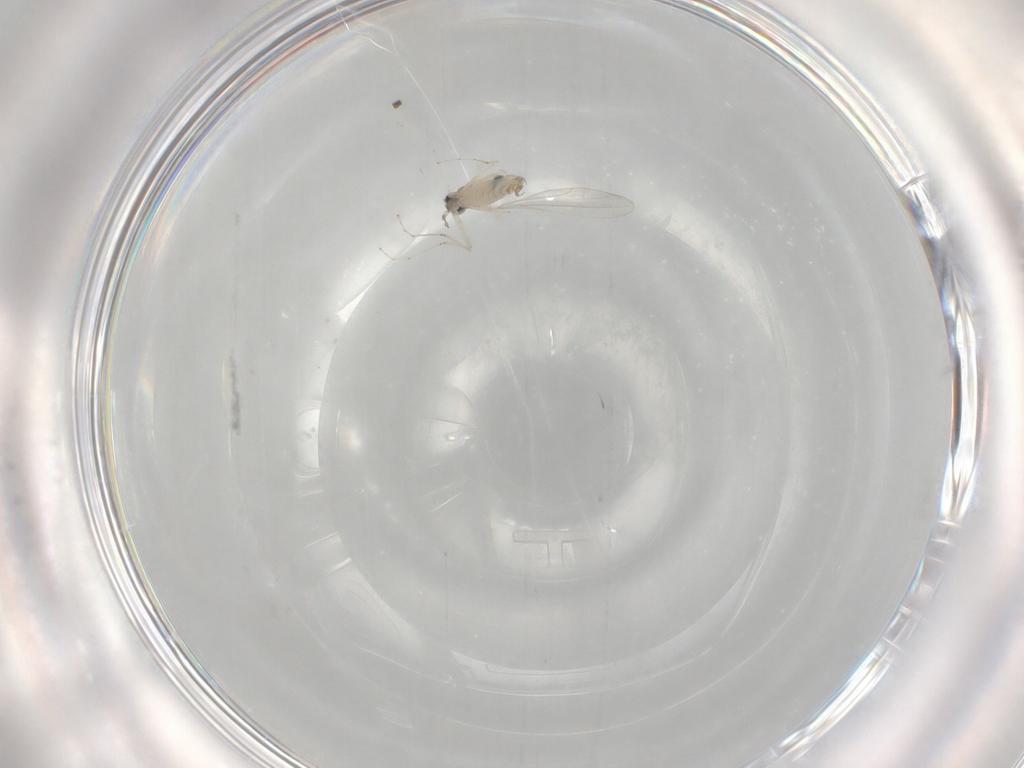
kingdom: Animalia
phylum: Arthropoda
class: Insecta
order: Diptera
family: Cecidomyiidae
